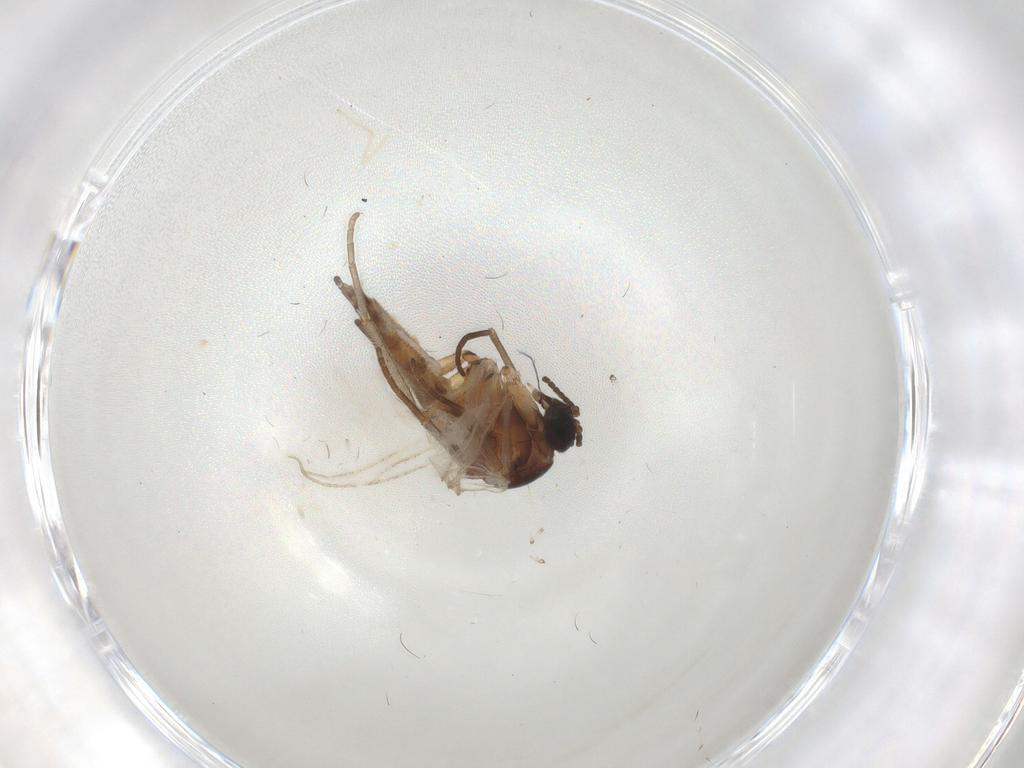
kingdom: Animalia
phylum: Arthropoda
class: Insecta
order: Diptera
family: Sciaridae
